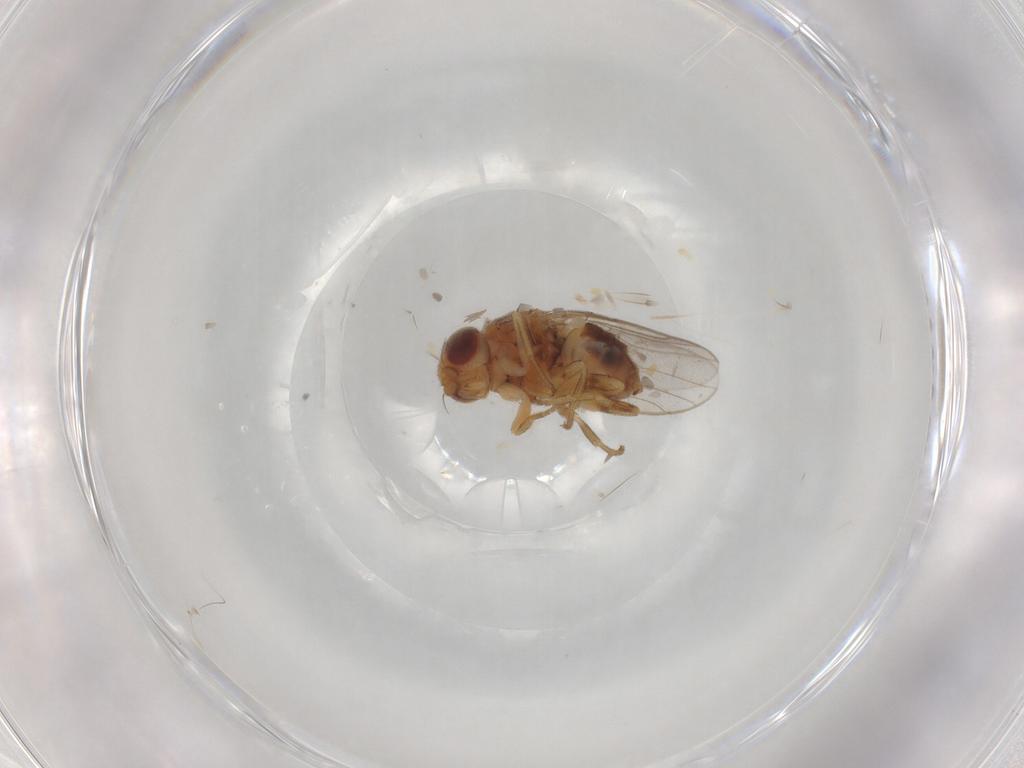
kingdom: Animalia
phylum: Arthropoda
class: Insecta
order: Diptera
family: Chloropidae
